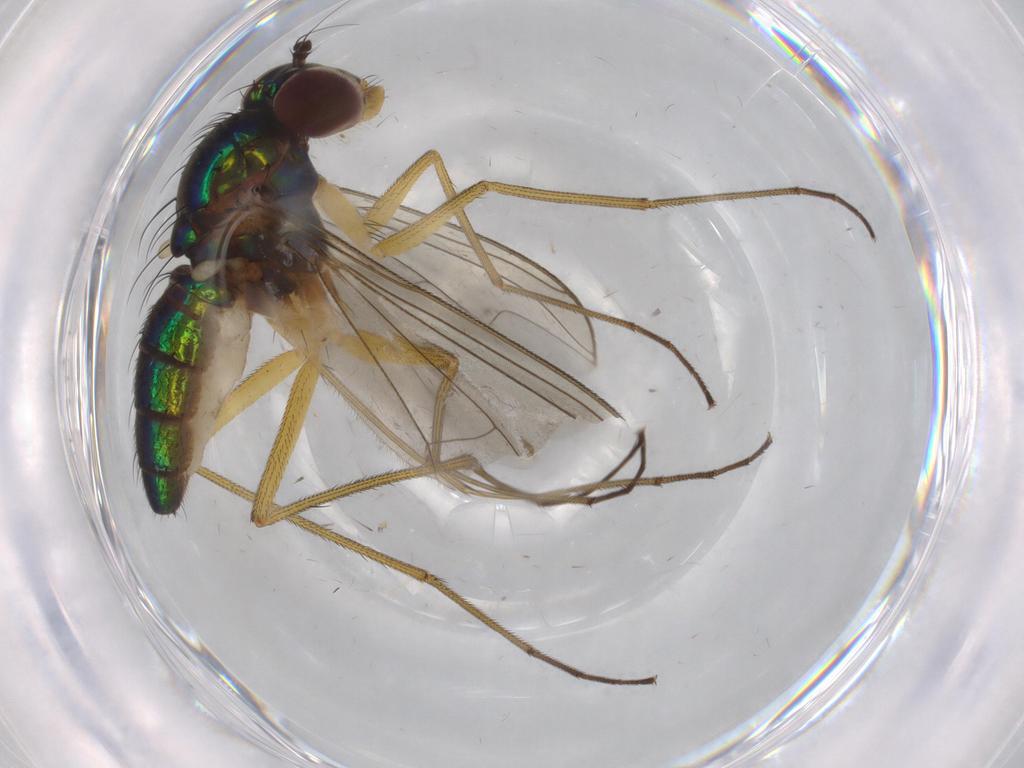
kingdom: Animalia
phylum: Arthropoda
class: Insecta
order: Diptera
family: Dolichopodidae
